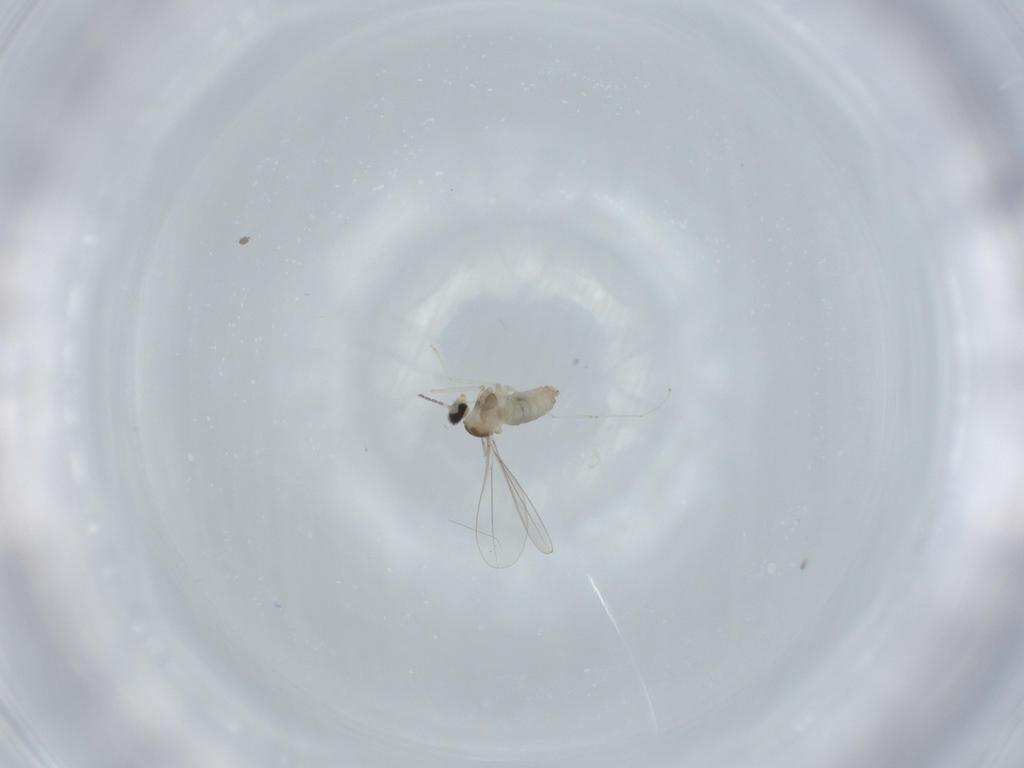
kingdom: Animalia
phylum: Arthropoda
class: Insecta
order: Diptera
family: Cecidomyiidae
